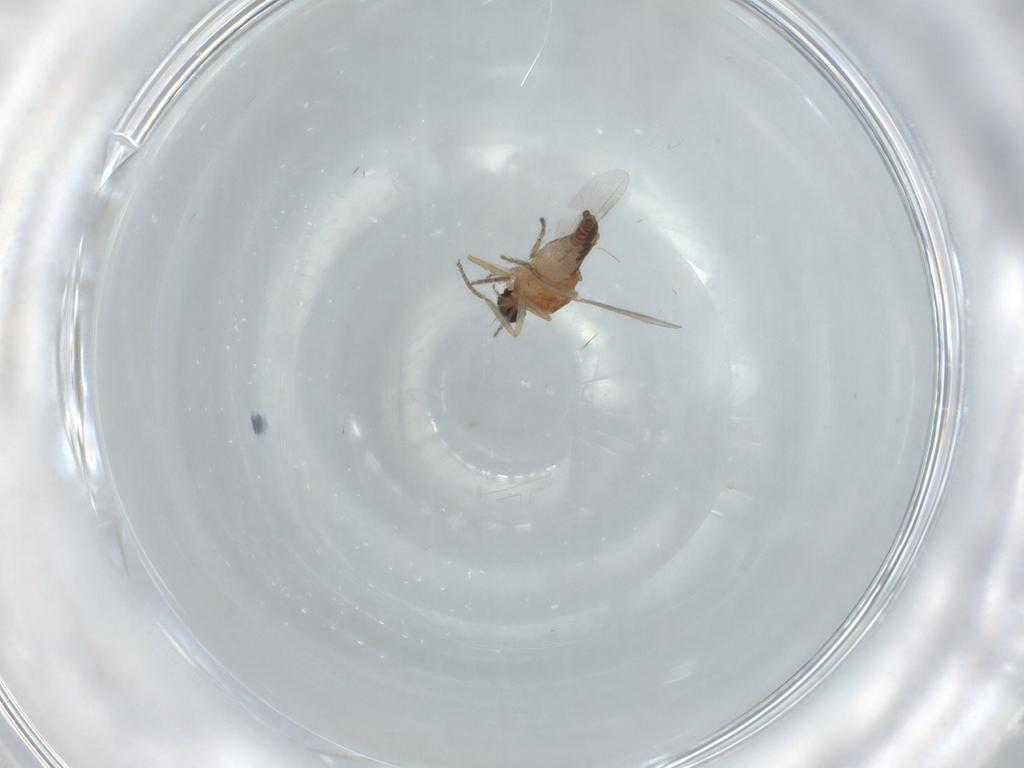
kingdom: Animalia
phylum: Arthropoda
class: Insecta
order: Diptera
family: Ceratopogonidae
